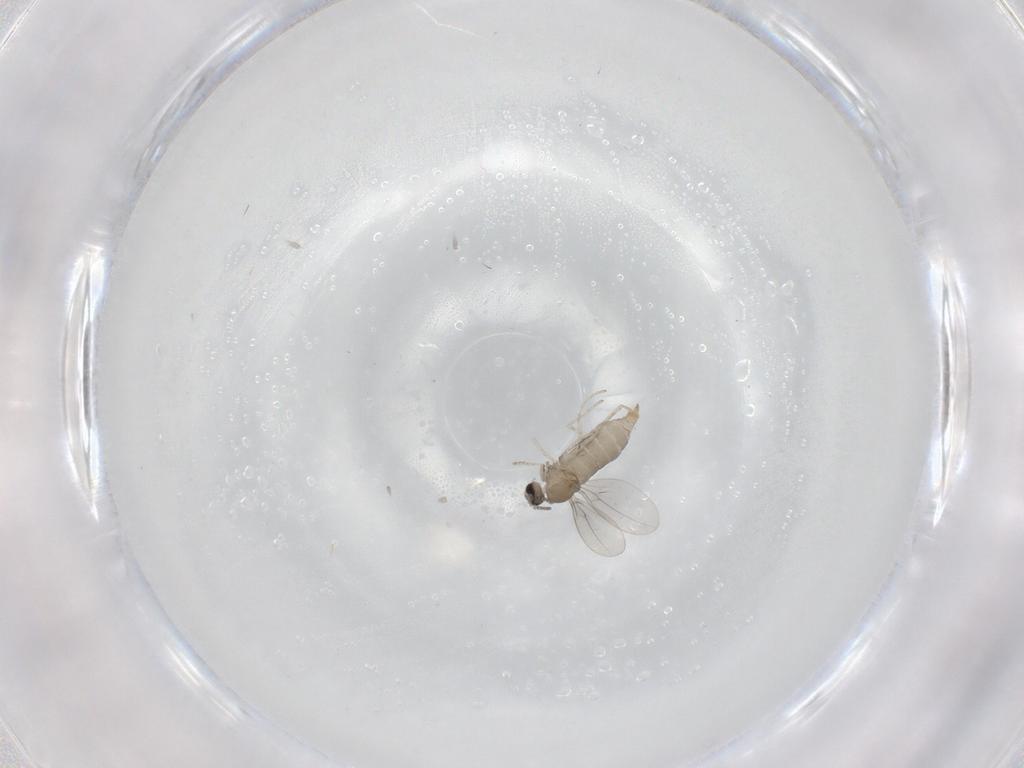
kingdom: Animalia
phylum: Arthropoda
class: Insecta
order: Diptera
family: Cecidomyiidae
